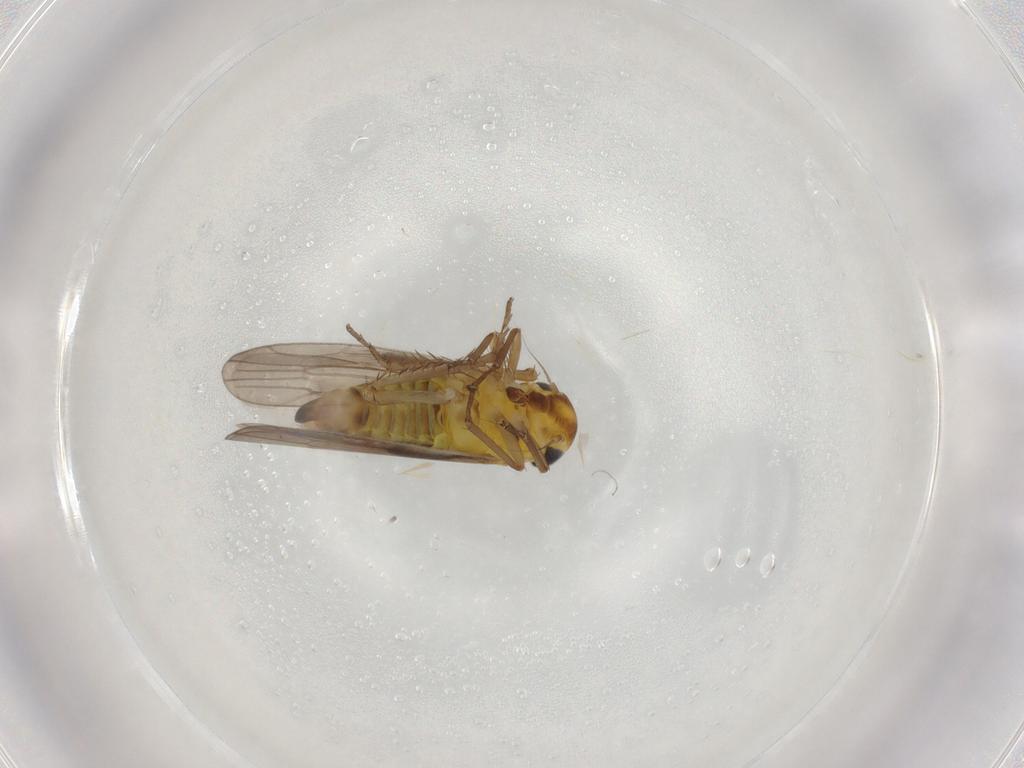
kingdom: Animalia
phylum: Arthropoda
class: Insecta
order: Hemiptera
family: Cicadellidae
